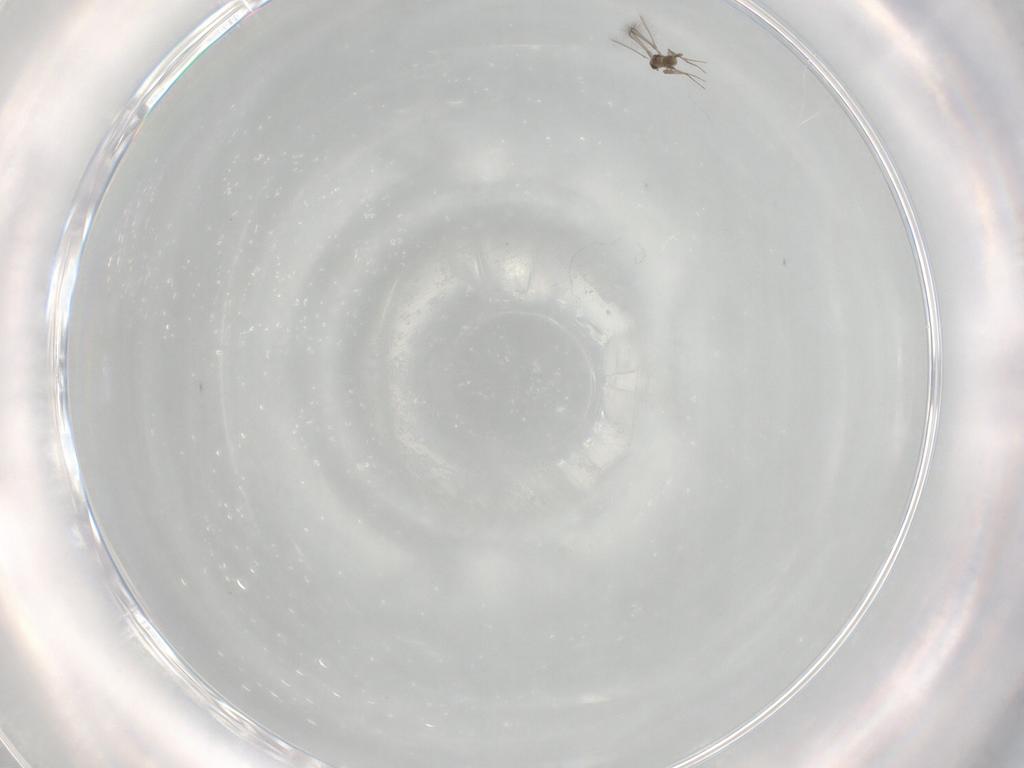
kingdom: Animalia
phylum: Arthropoda
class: Insecta
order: Hymenoptera
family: Mymaridae
